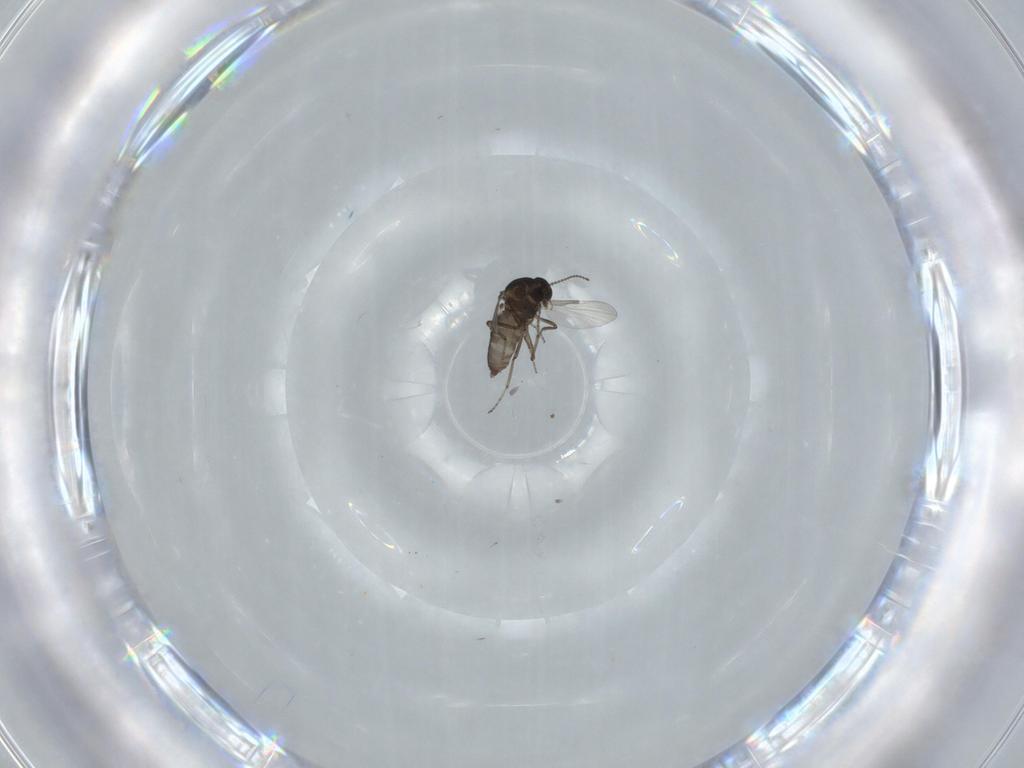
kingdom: Animalia
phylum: Arthropoda
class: Insecta
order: Diptera
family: Ceratopogonidae
